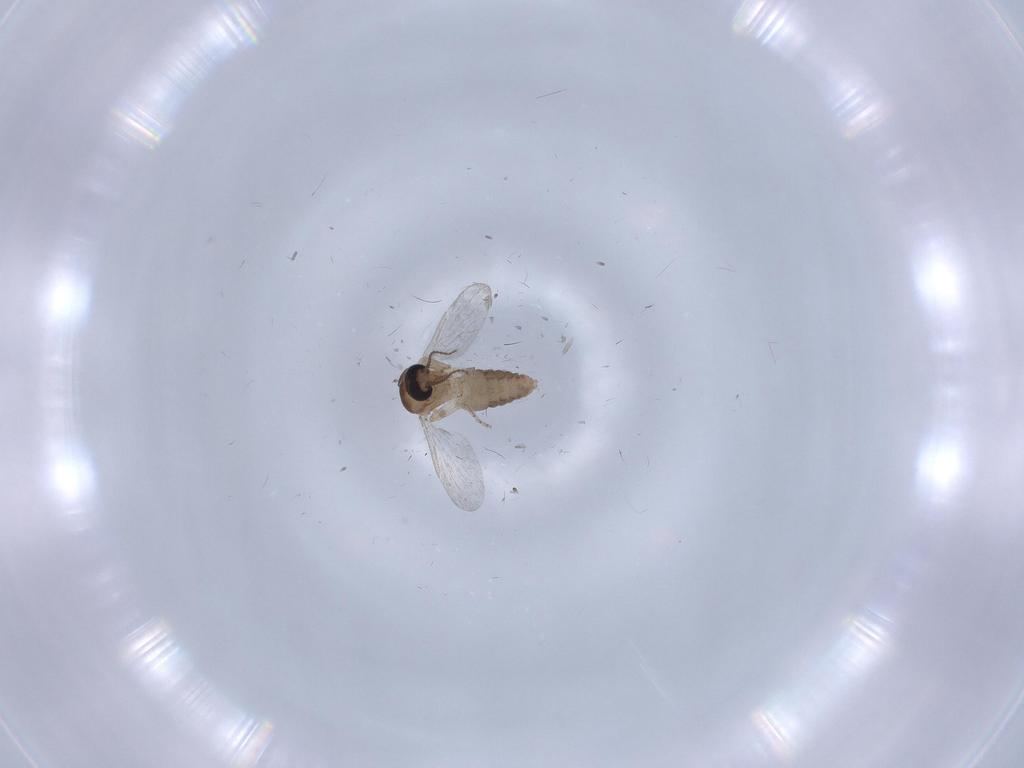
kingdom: Animalia
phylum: Arthropoda
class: Insecta
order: Diptera
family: Ceratopogonidae
